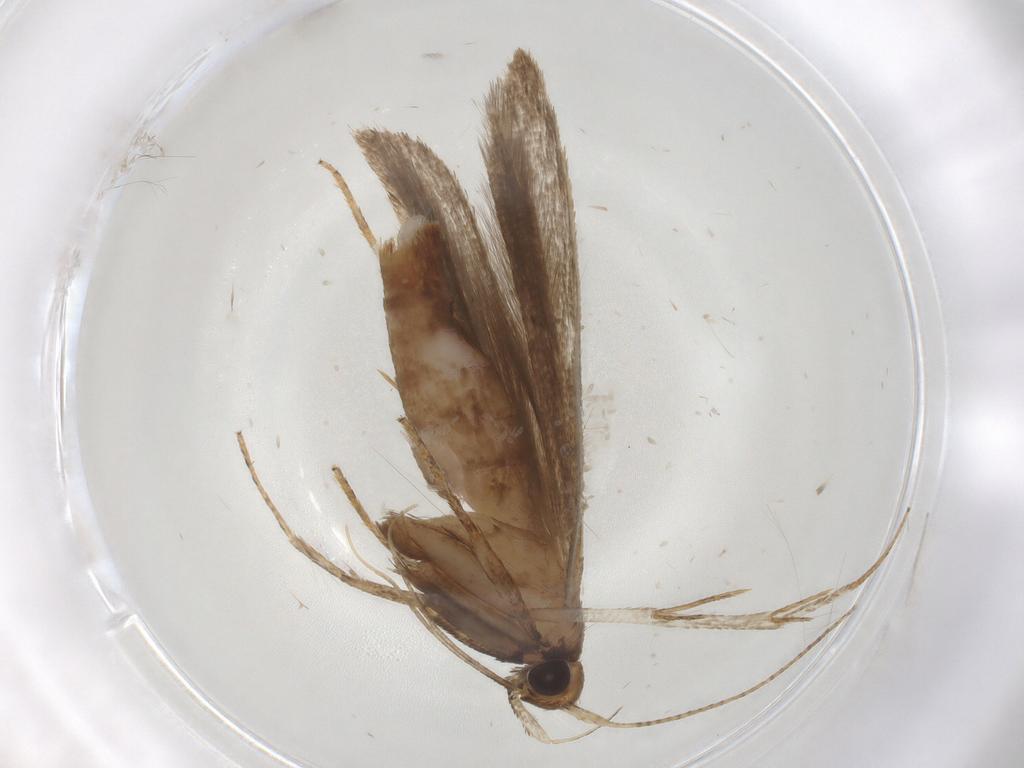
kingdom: Animalia
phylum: Arthropoda
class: Insecta
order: Lepidoptera
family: Gelechiidae
